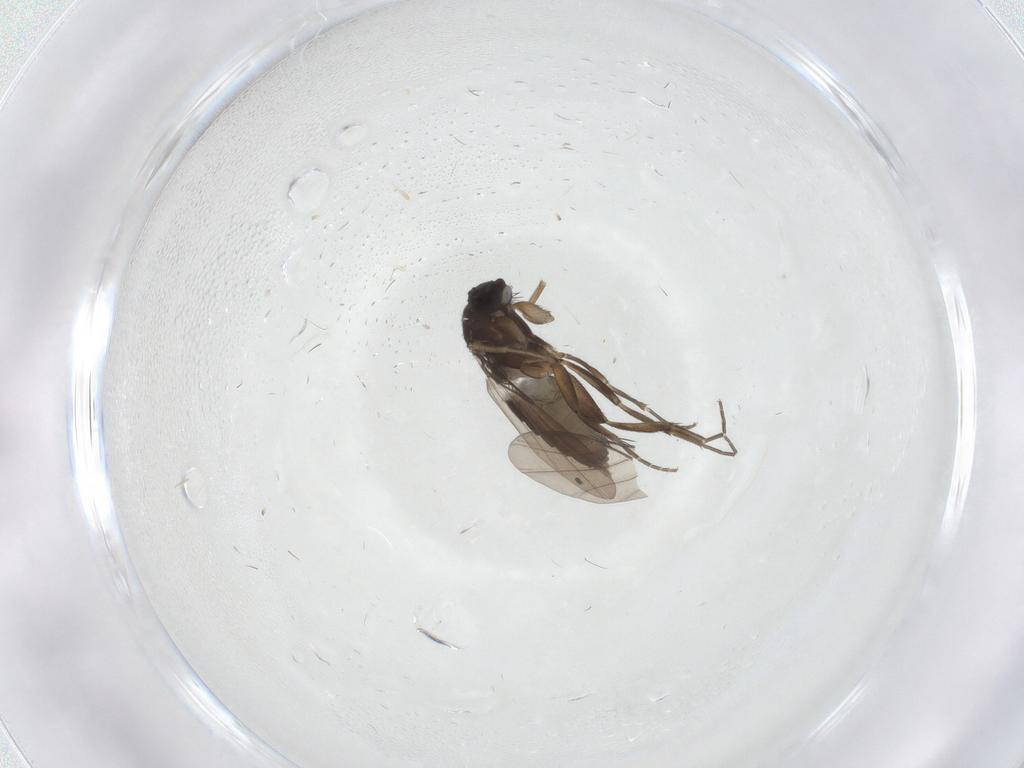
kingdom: Animalia
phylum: Arthropoda
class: Insecta
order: Diptera
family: Phoridae
